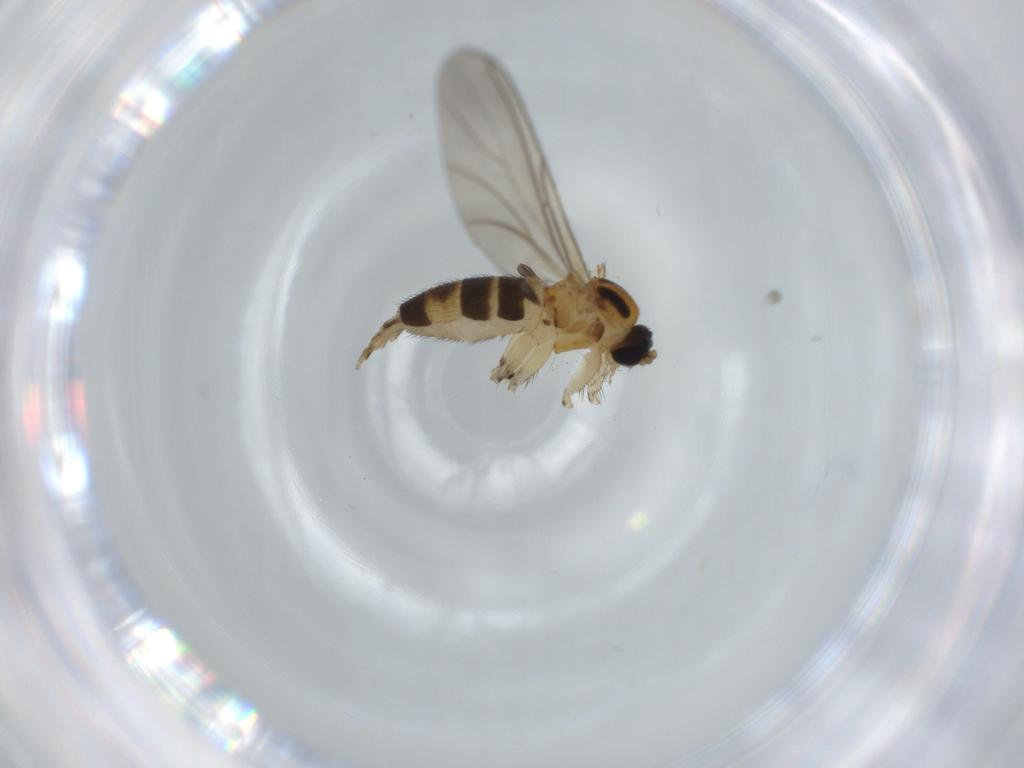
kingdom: Animalia
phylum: Arthropoda
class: Insecta
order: Diptera
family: Sciaridae
